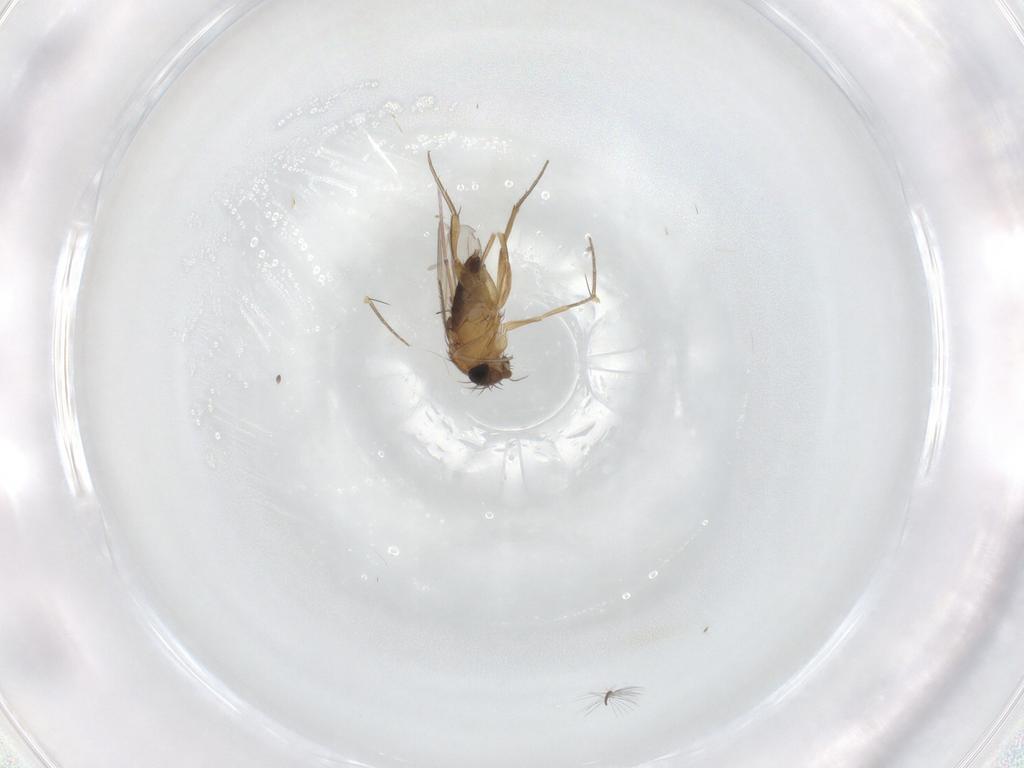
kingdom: Animalia
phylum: Arthropoda
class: Insecta
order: Diptera
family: Phoridae
